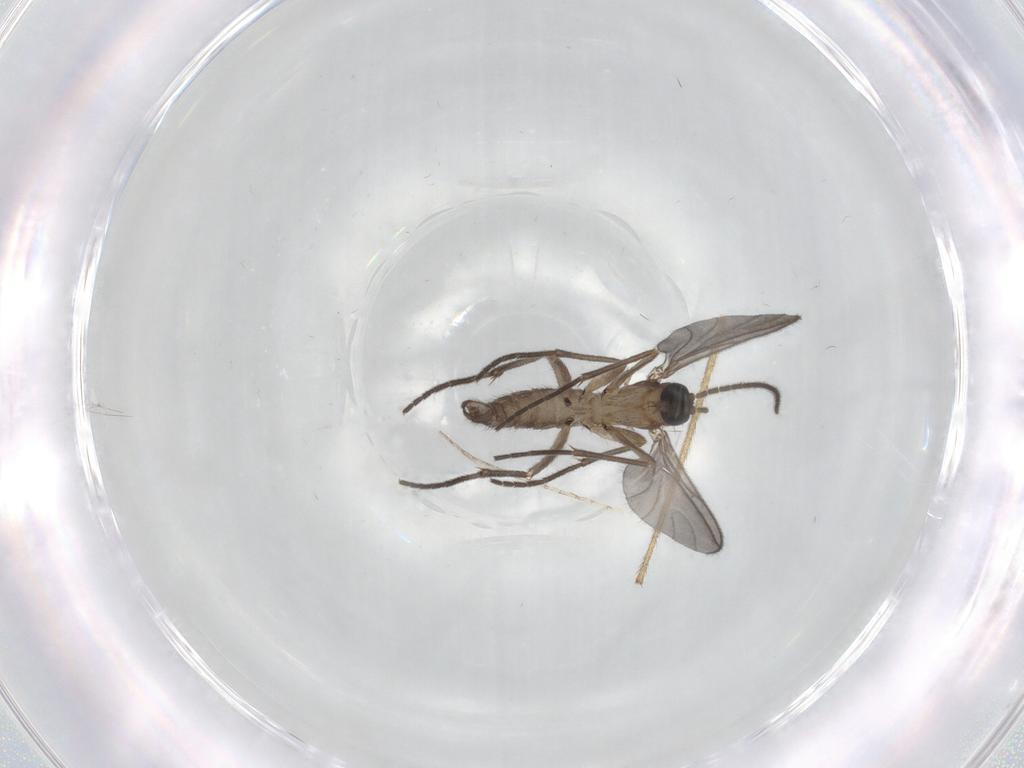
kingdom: Animalia
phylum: Arthropoda
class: Insecta
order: Diptera
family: Sciaridae
